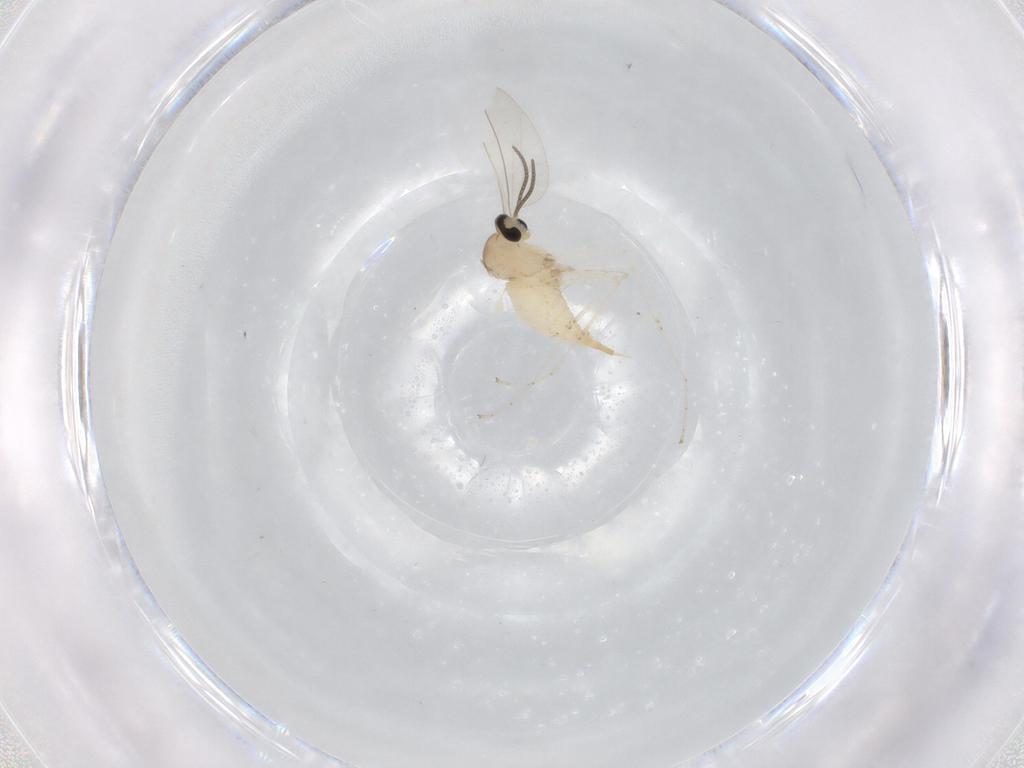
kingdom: Animalia
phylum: Arthropoda
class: Insecta
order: Diptera
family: Cecidomyiidae
